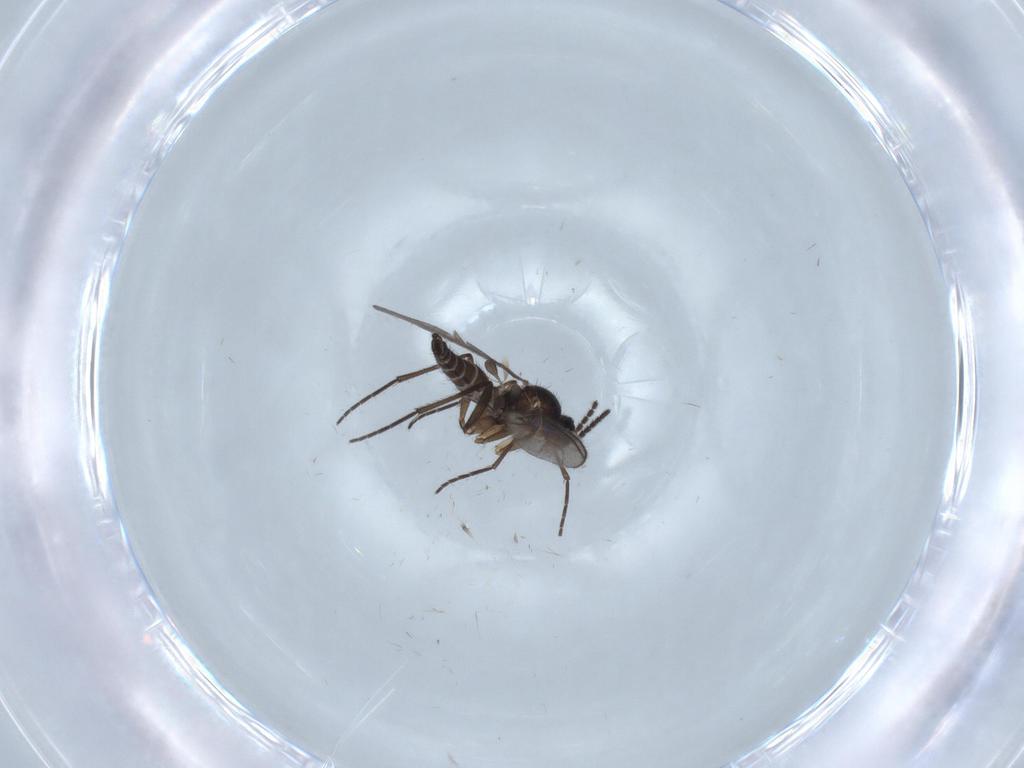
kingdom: Animalia
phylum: Arthropoda
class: Insecta
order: Diptera
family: Sciaridae
